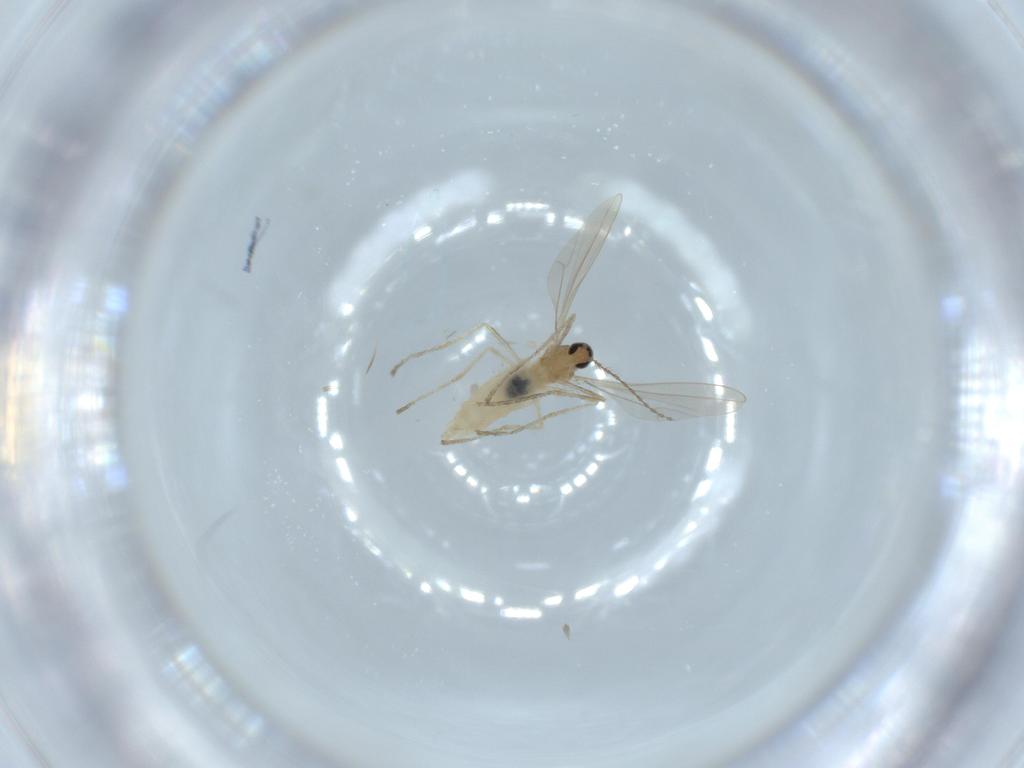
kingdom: Animalia
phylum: Arthropoda
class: Insecta
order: Diptera
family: Cecidomyiidae
